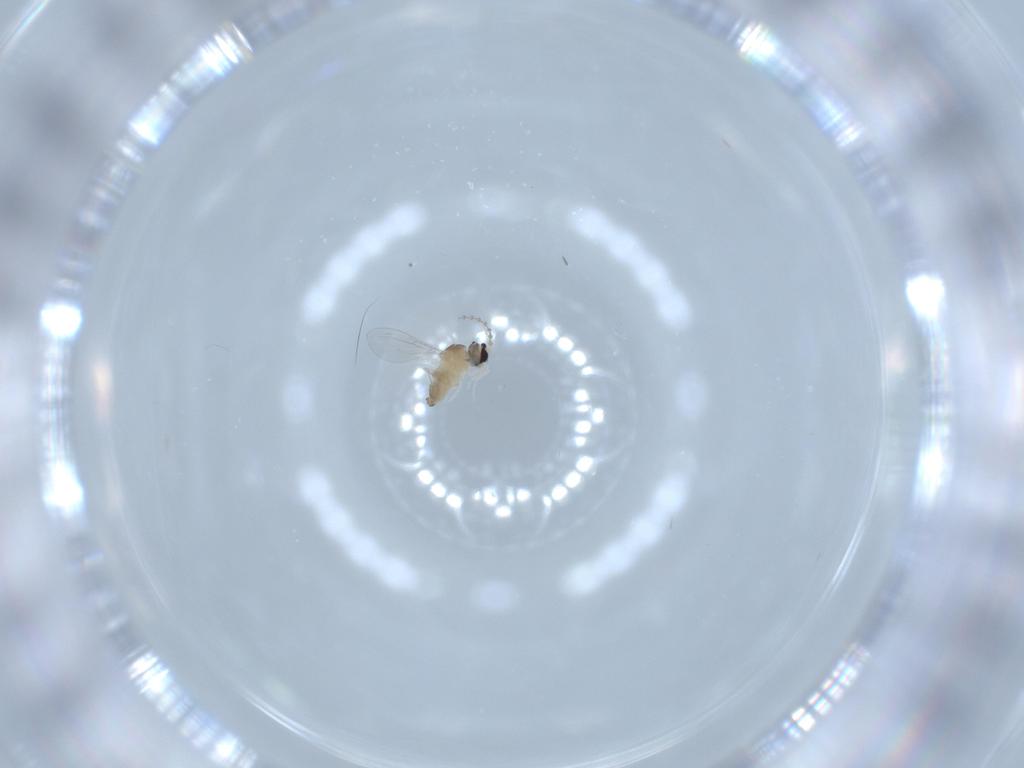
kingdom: Animalia
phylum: Arthropoda
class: Insecta
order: Diptera
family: Cecidomyiidae
